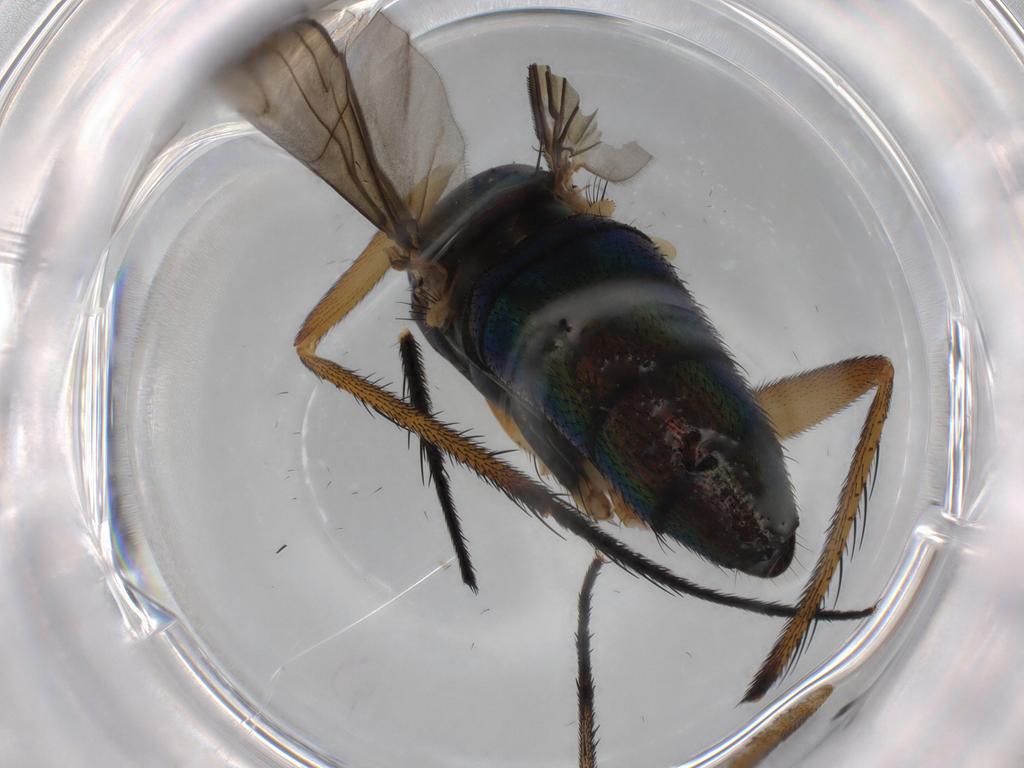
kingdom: Animalia
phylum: Arthropoda
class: Insecta
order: Diptera
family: Dolichopodidae
